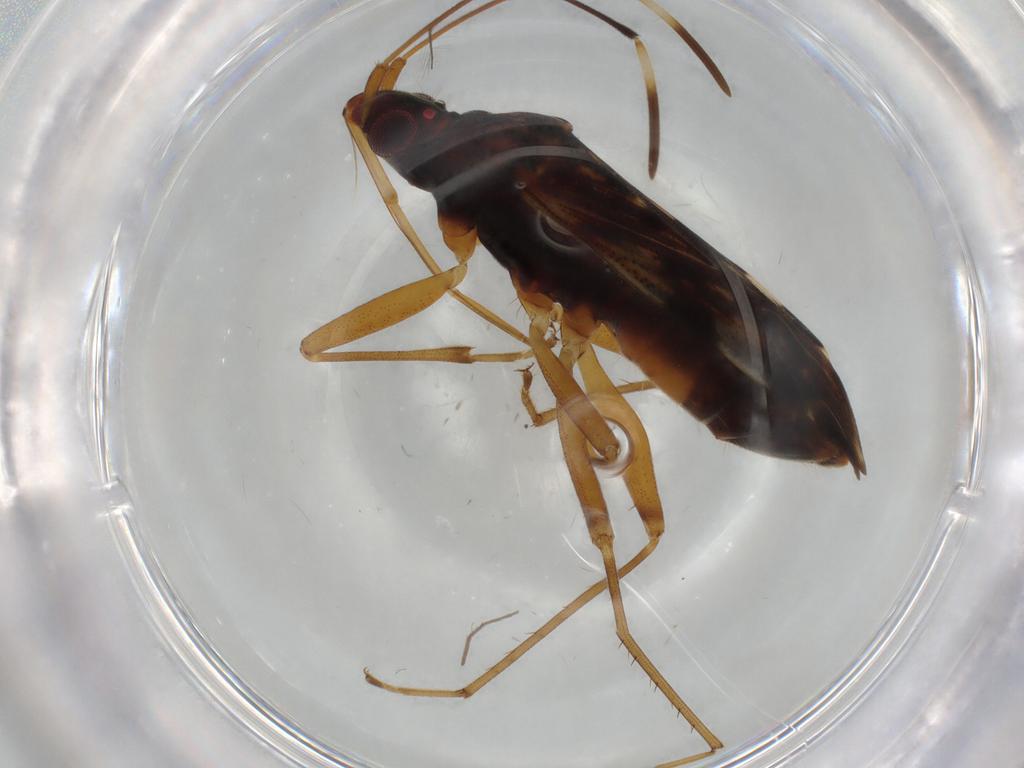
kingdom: Animalia
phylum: Arthropoda
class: Insecta
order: Hemiptera
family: Rhyparochromidae
